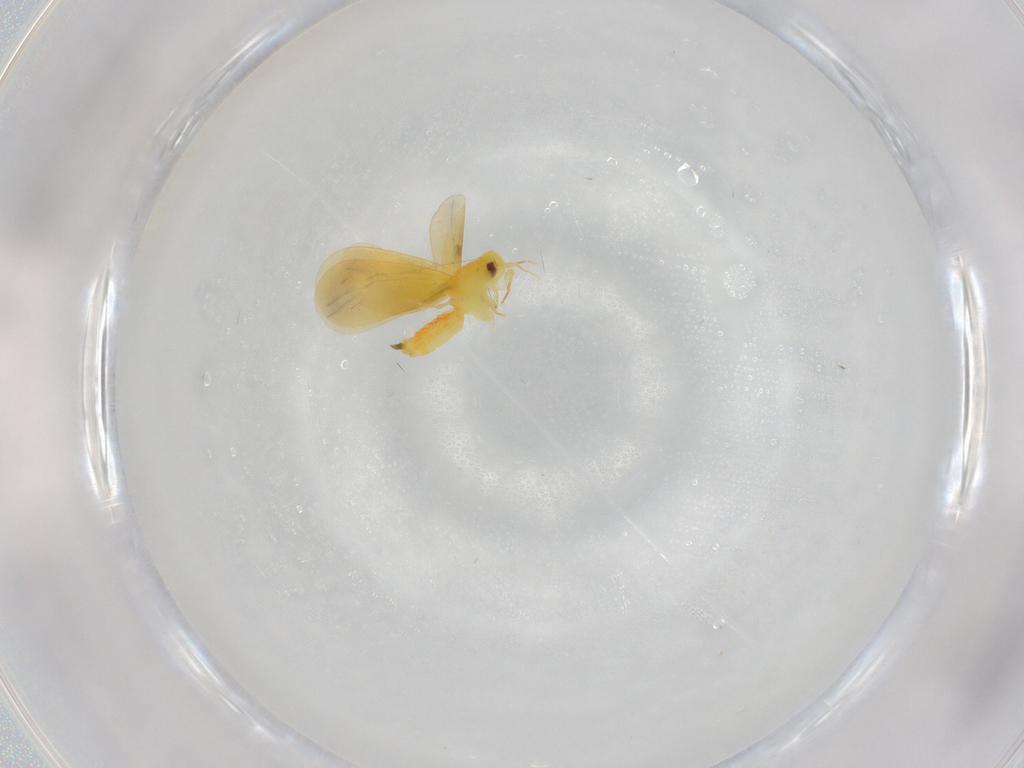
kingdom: Animalia
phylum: Arthropoda
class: Insecta
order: Hemiptera
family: Aleyrodidae
